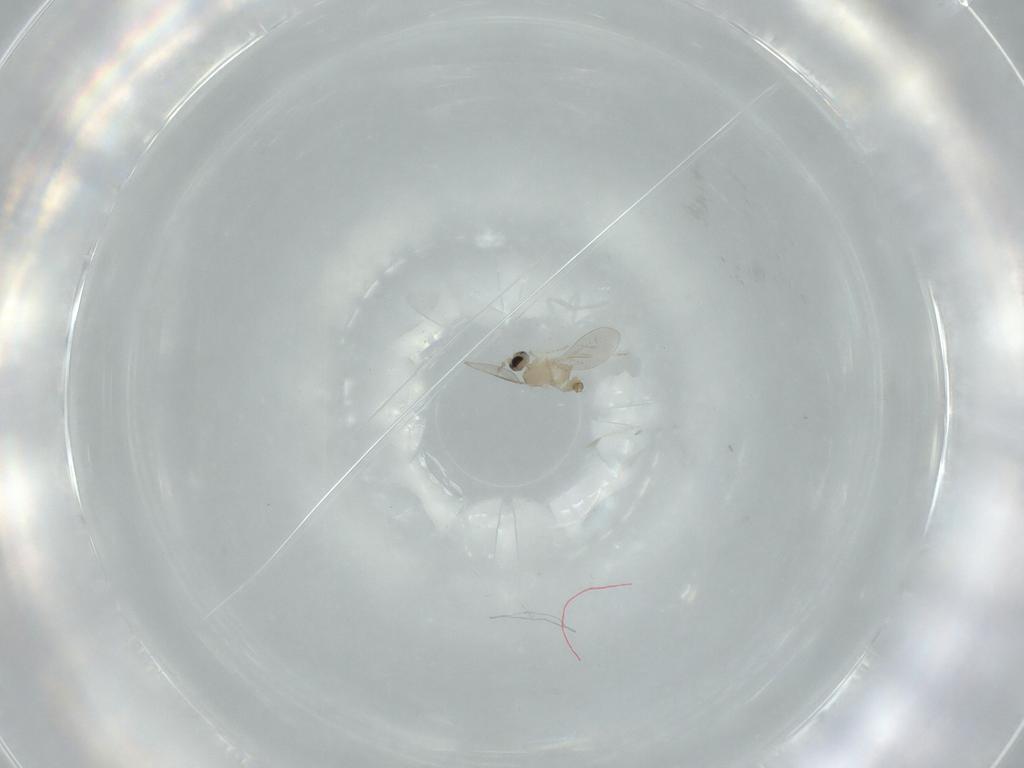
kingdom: Animalia
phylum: Arthropoda
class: Insecta
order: Diptera
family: Cecidomyiidae
